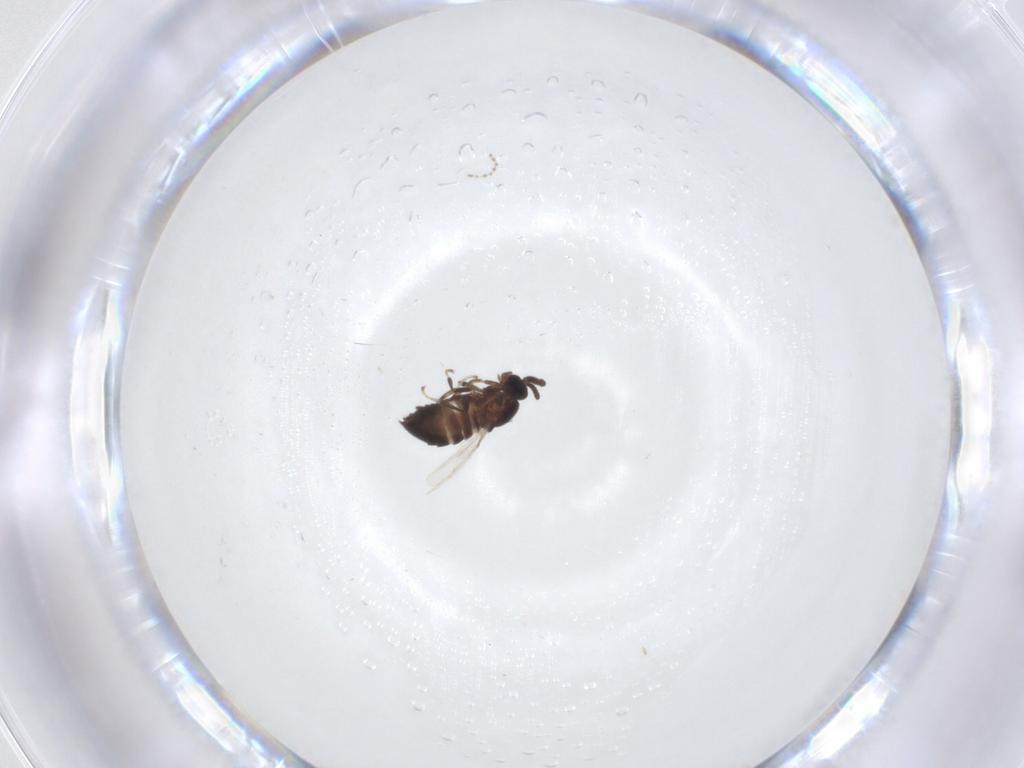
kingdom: Animalia
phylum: Arthropoda
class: Insecta
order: Diptera
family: Scatopsidae
